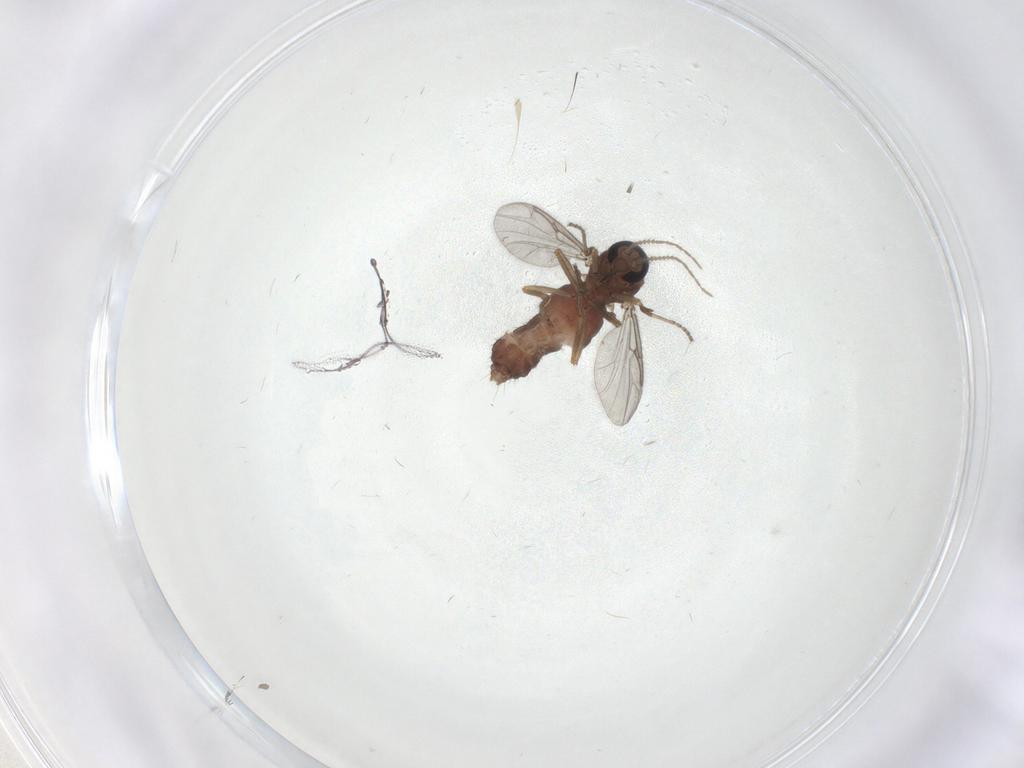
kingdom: Animalia
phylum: Arthropoda
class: Insecta
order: Diptera
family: Ceratopogonidae
